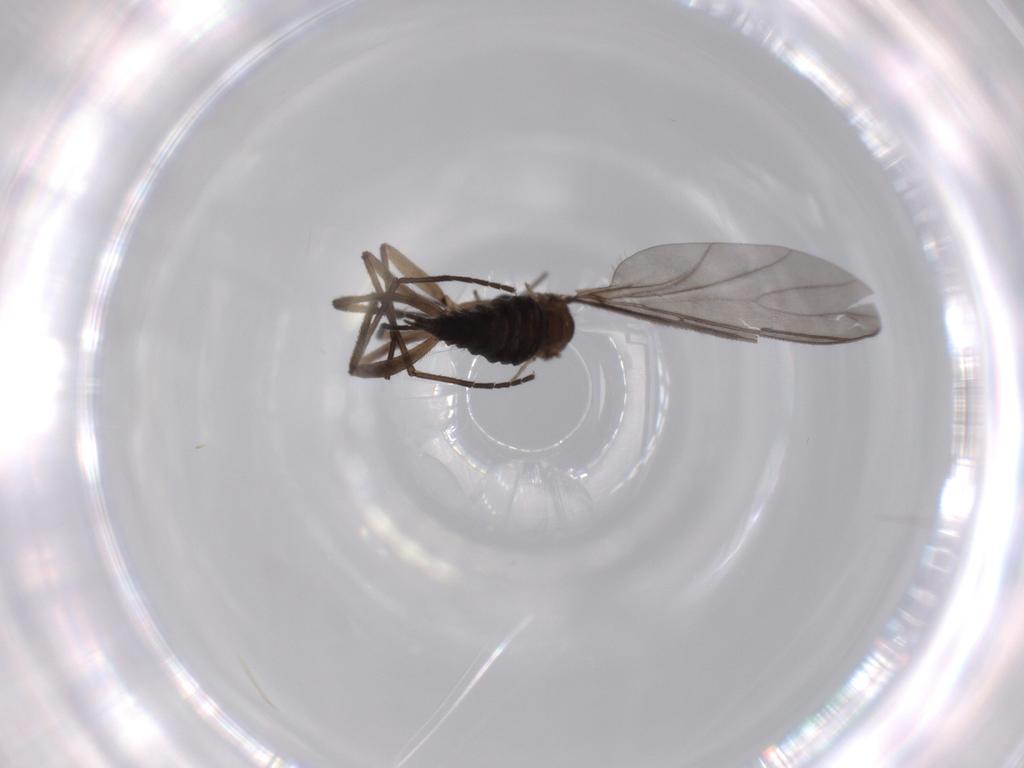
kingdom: Animalia
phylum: Arthropoda
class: Insecta
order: Diptera
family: Sciaridae
